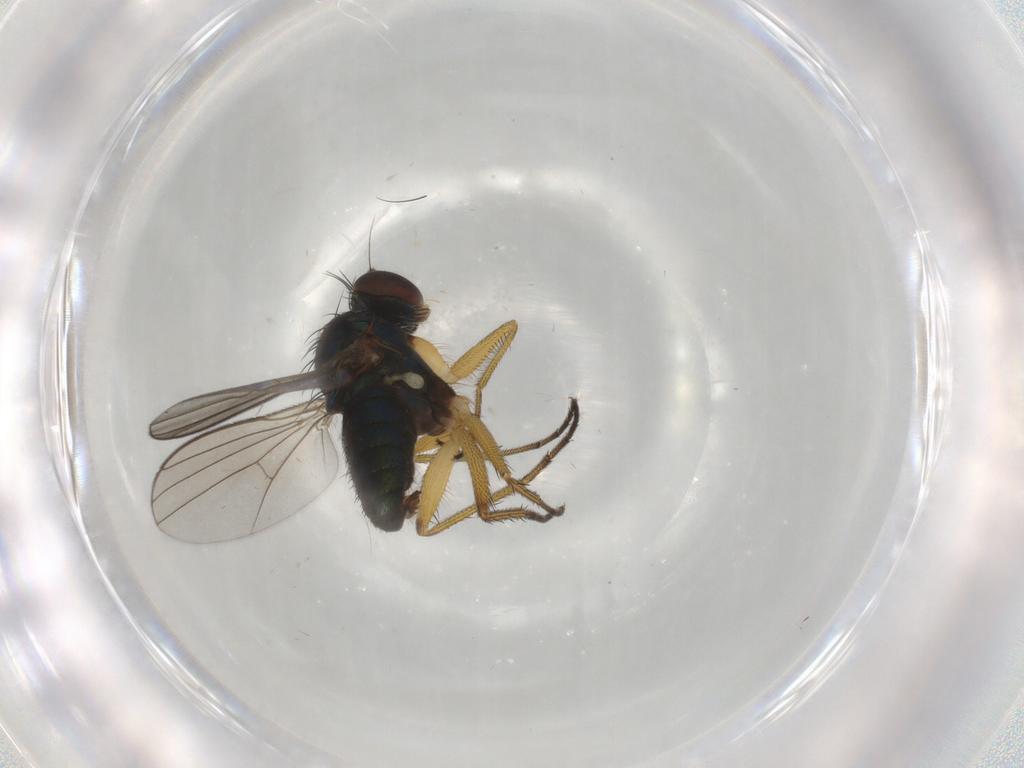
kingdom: Animalia
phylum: Arthropoda
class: Insecta
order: Diptera
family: Dolichopodidae
